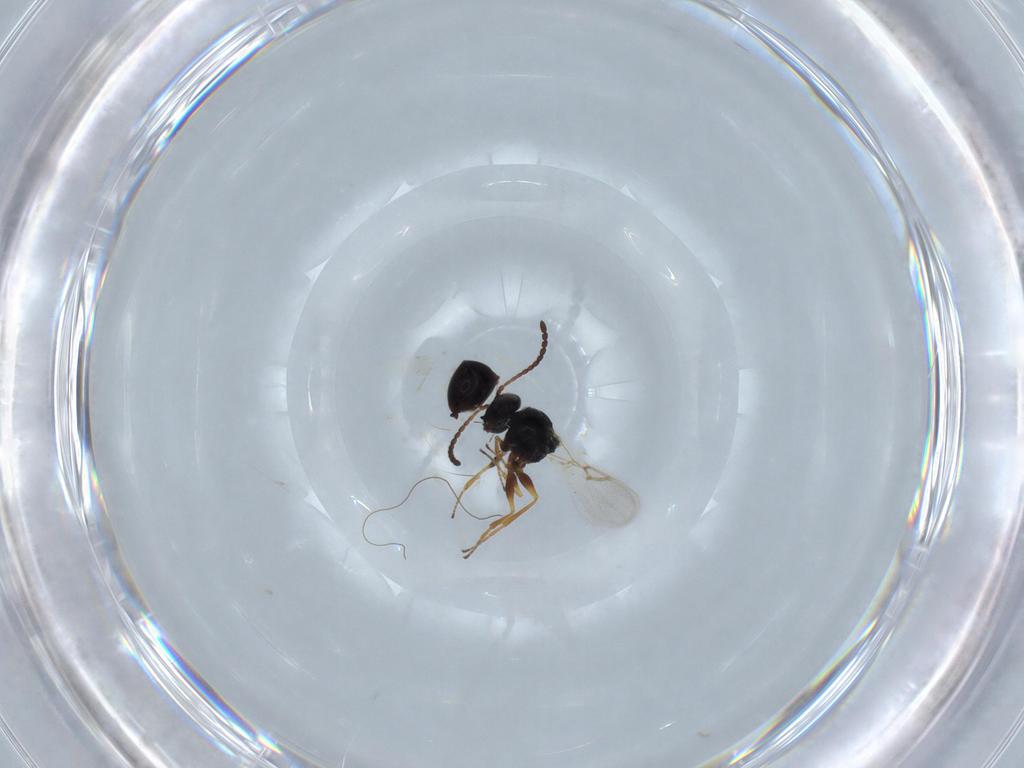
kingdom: Animalia
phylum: Arthropoda
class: Insecta
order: Hymenoptera
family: Figitidae
